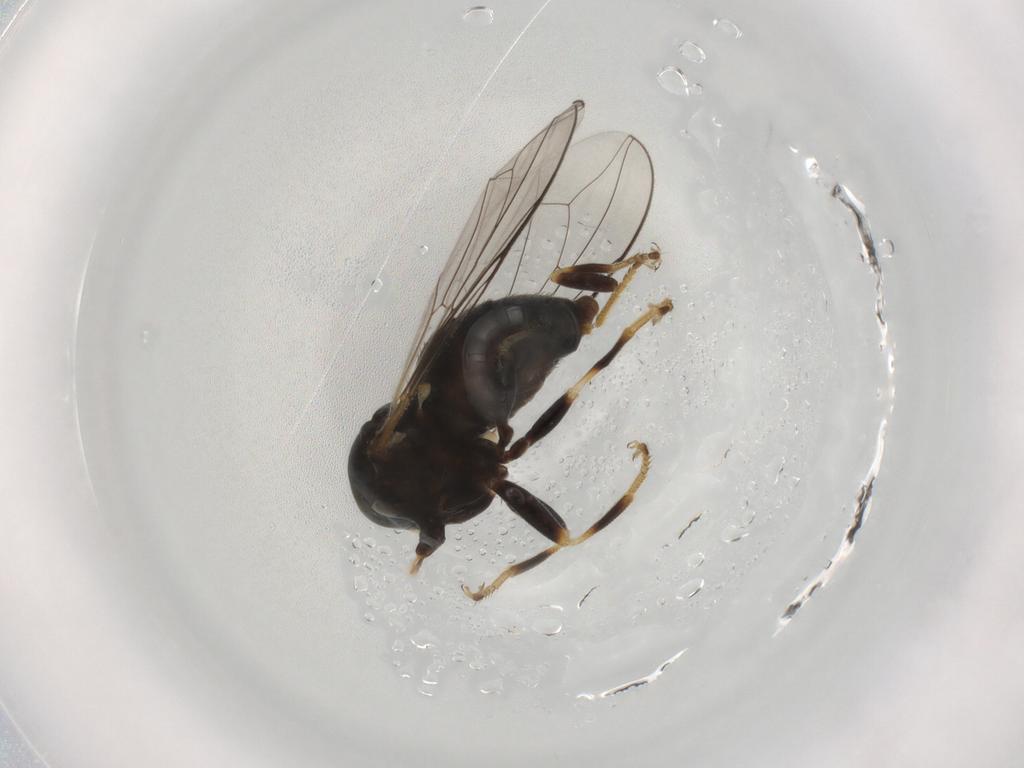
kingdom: Animalia
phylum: Arthropoda
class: Insecta
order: Diptera
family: Pipunculidae
